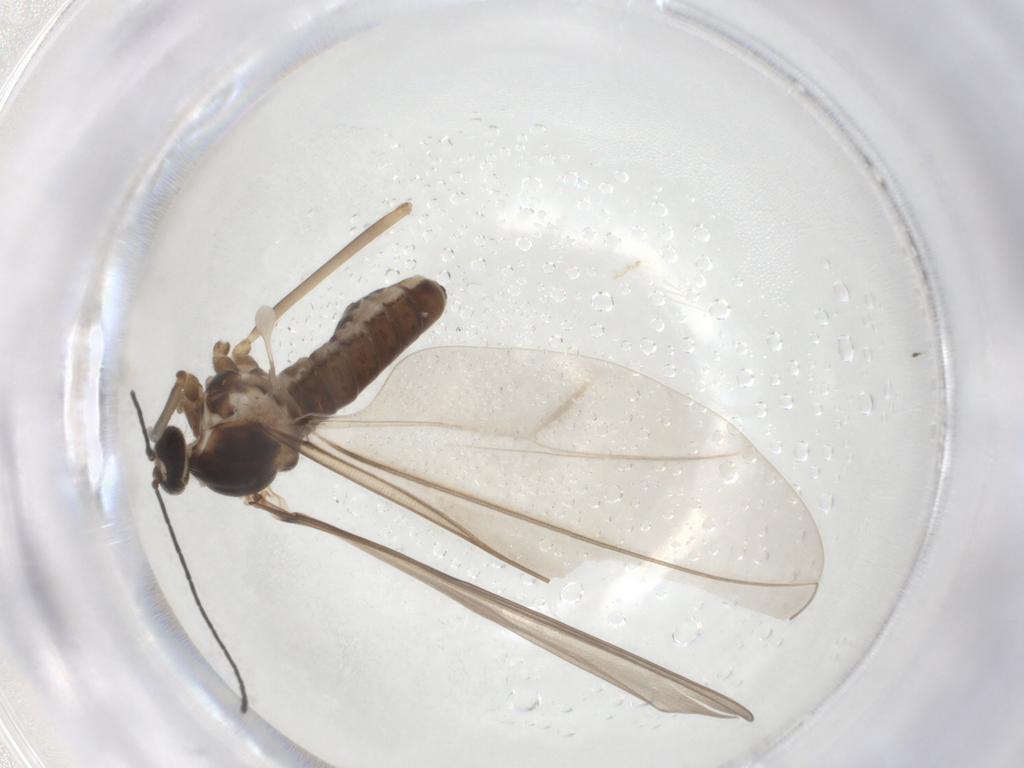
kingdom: Animalia
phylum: Arthropoda
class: Insecta
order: Diptera
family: Cecidomyiidae
